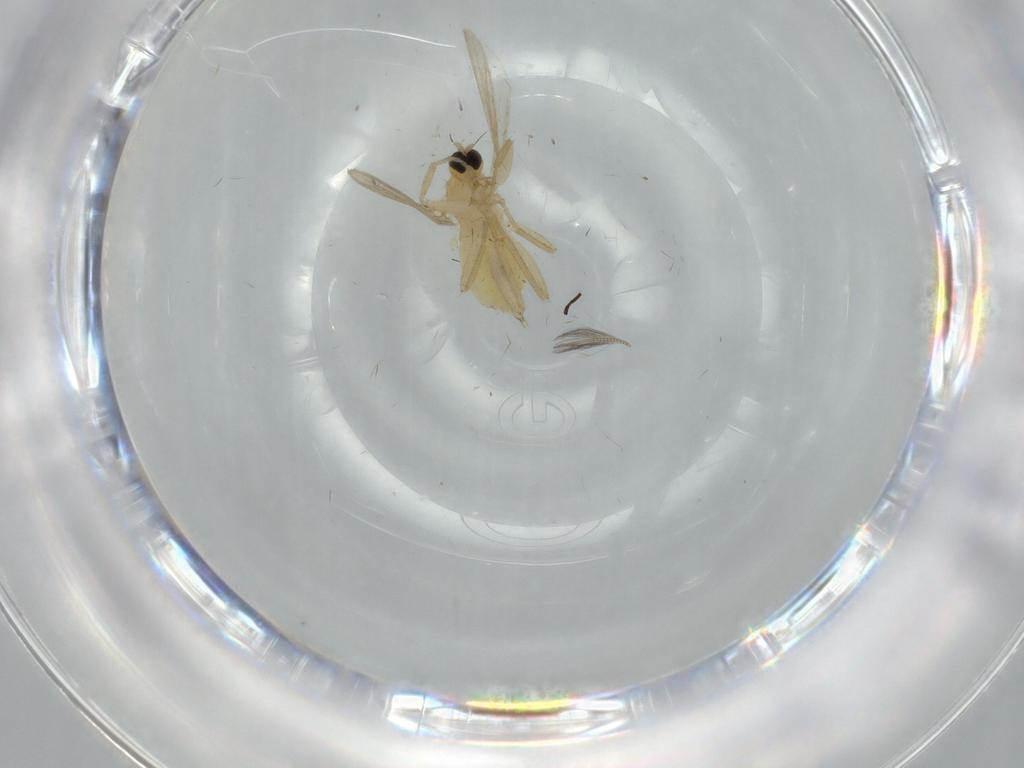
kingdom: Animalia
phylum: Arthropoda
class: Insecta
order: Diptera
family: Hybotidae
